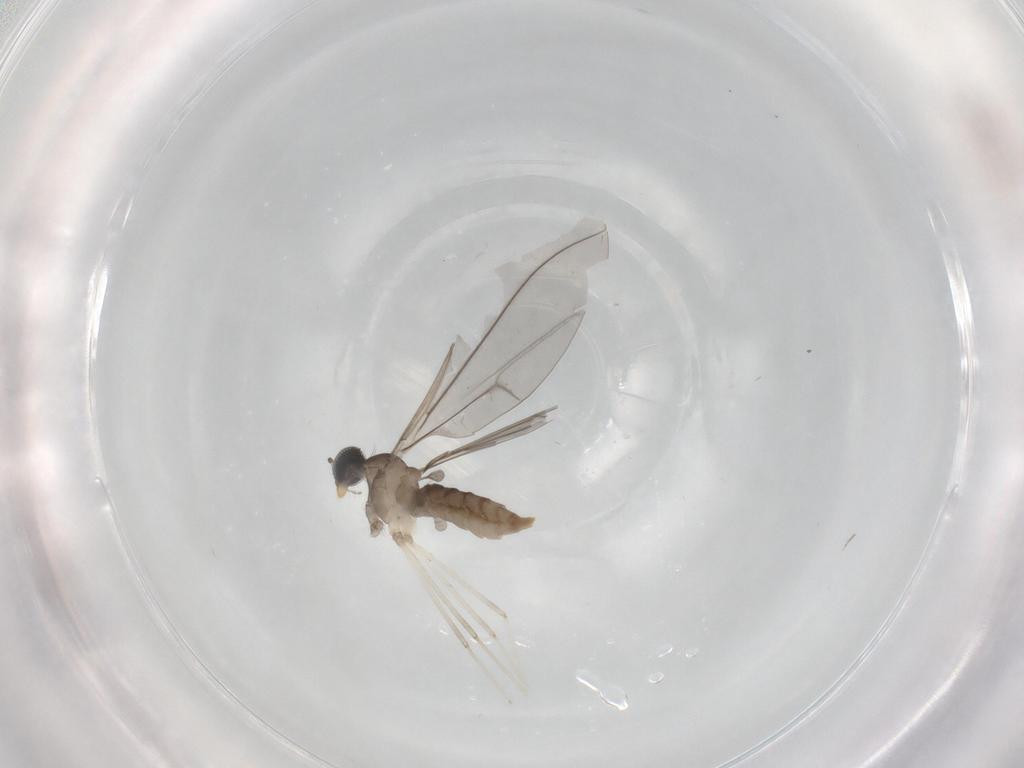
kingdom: Animalia
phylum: Arthropoda
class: Insecta
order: Diptera
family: Cecidomyiidae
